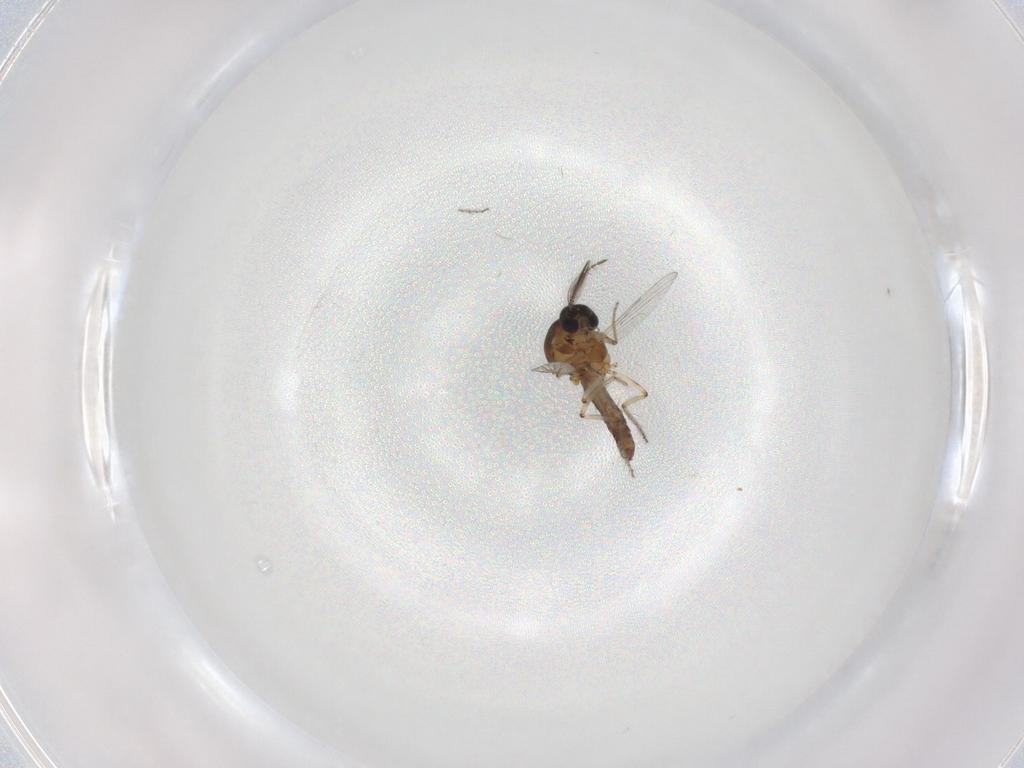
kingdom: Animalia
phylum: Arthropoda
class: Insecta
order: Diptera
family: Ceratopogonidae
